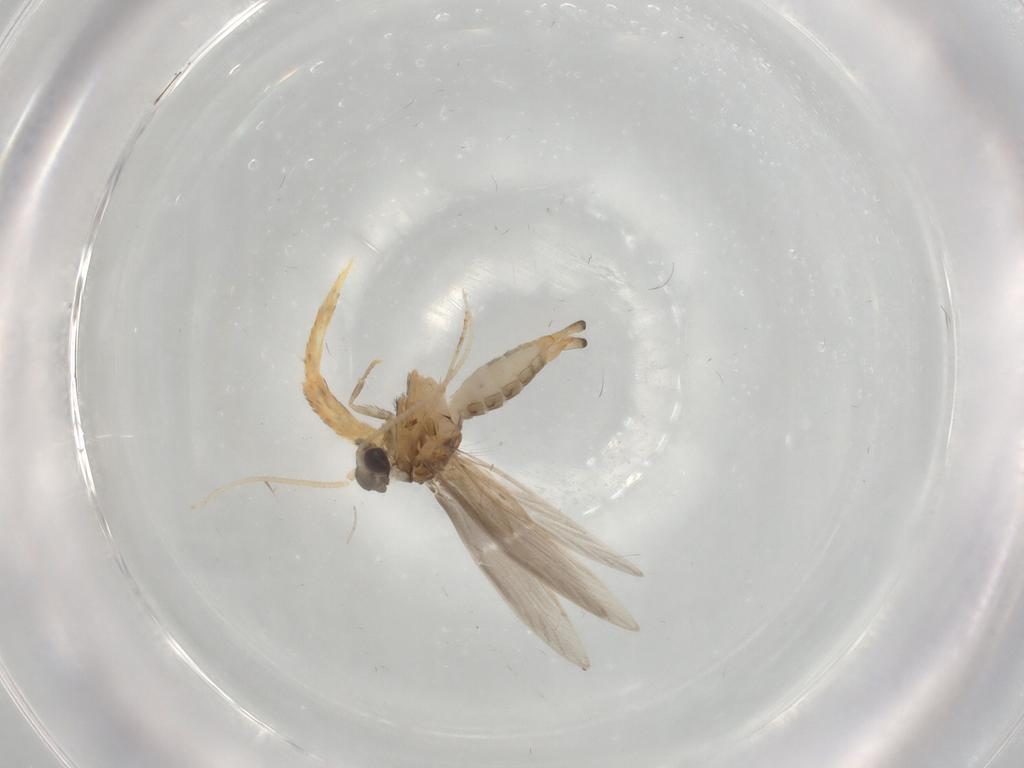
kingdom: Animalia
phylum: Arthropoda
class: Insecta
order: Trichoptera
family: Hydroptilidae
